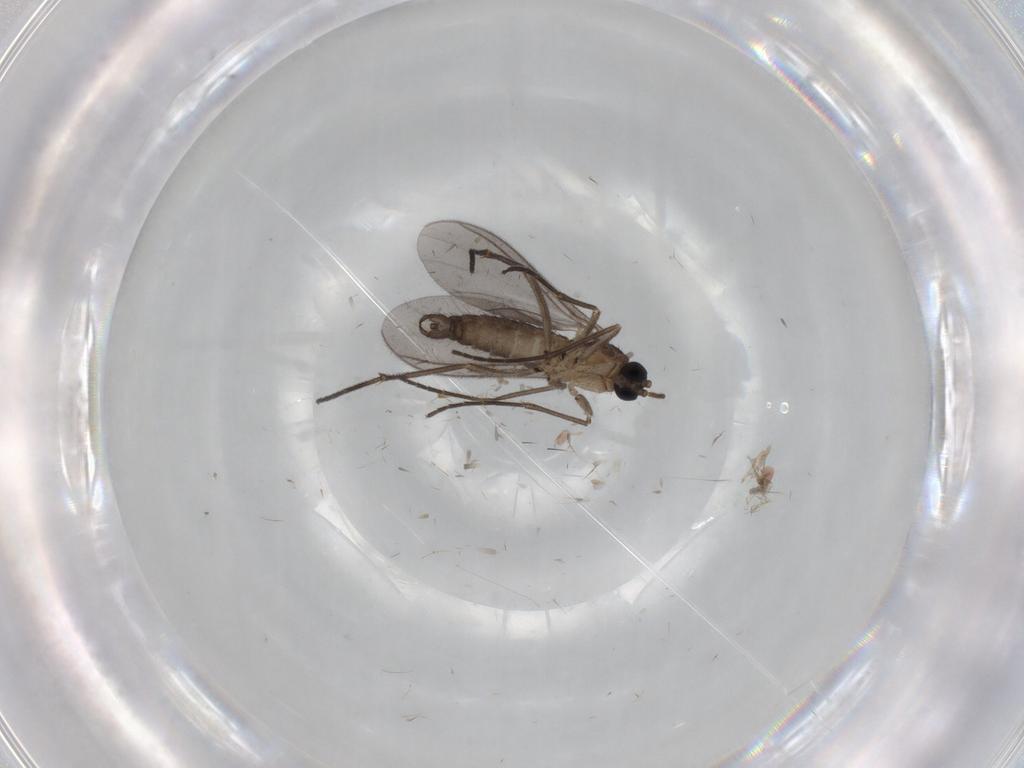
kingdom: Animalia
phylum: Arthropoda
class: Insecta
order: Diptera
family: Sciaridae
